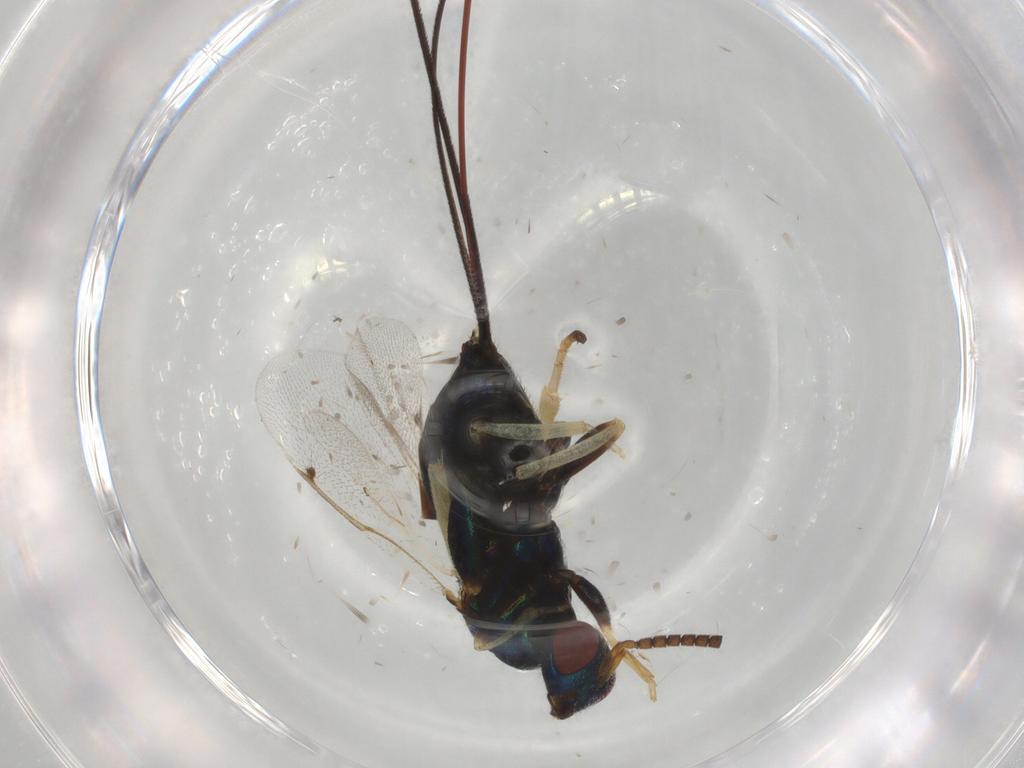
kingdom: Animalia
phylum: Arthropoda
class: Insecta
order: Hymenoptera
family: Torymidae
